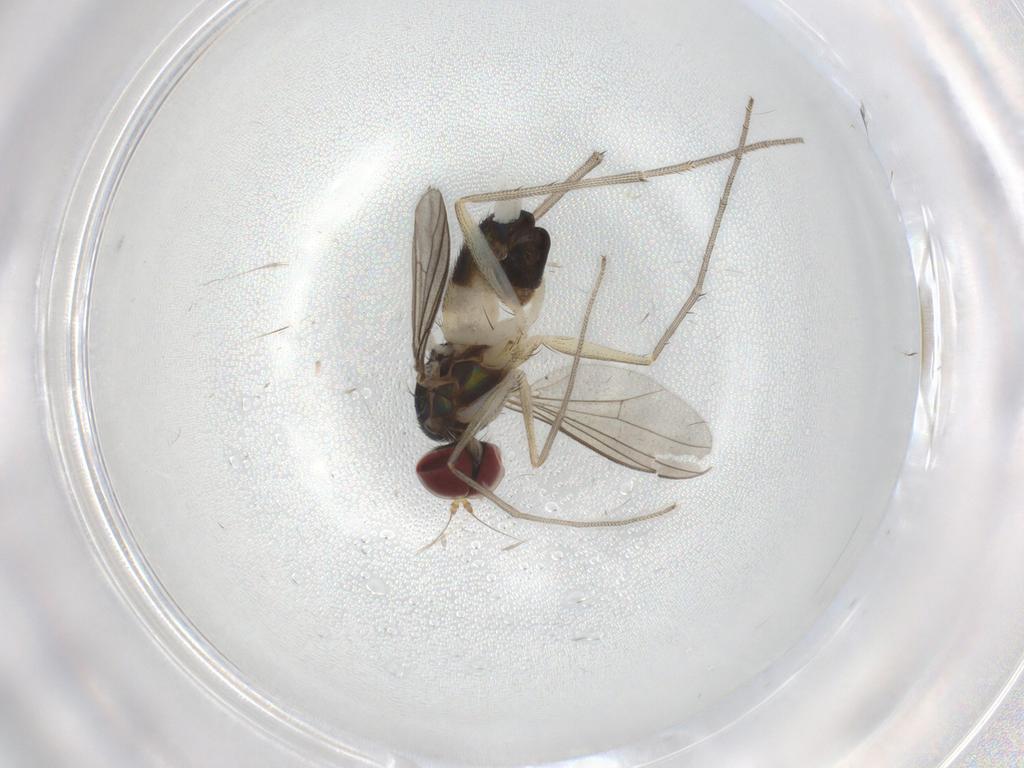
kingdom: Animalia
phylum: Arthropoda
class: Insecta
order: Diptera
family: Dolichopodidae
